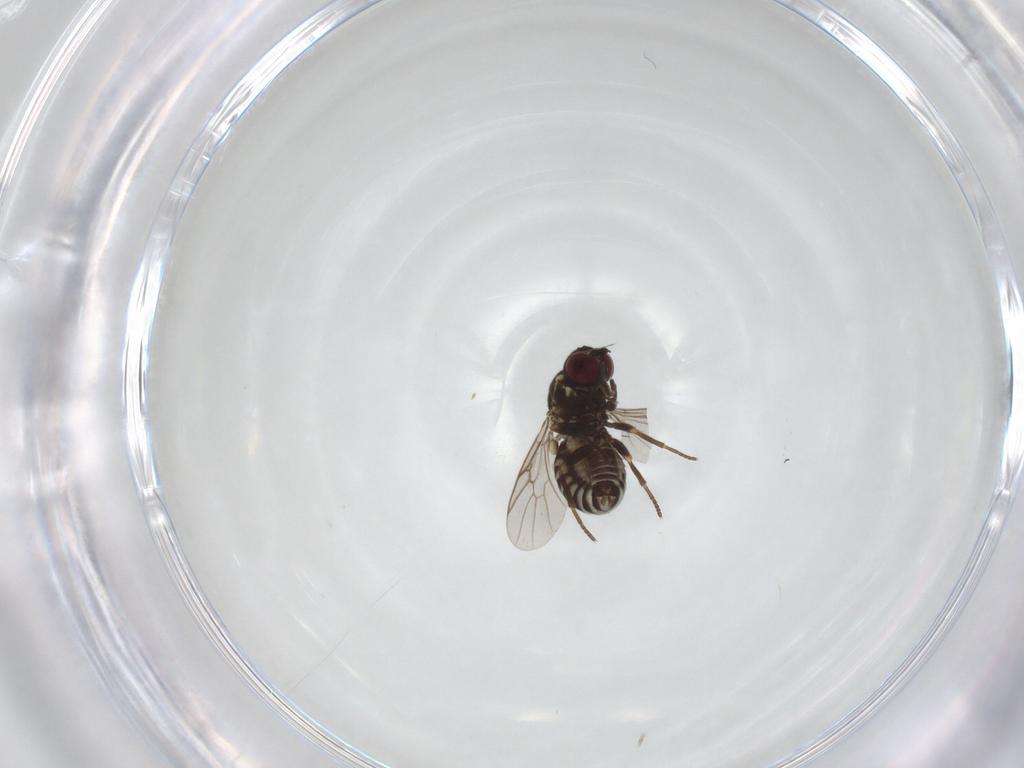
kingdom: Animalia
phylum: Arthropoda
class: Insecta
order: Diptera
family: Bombyliidae
